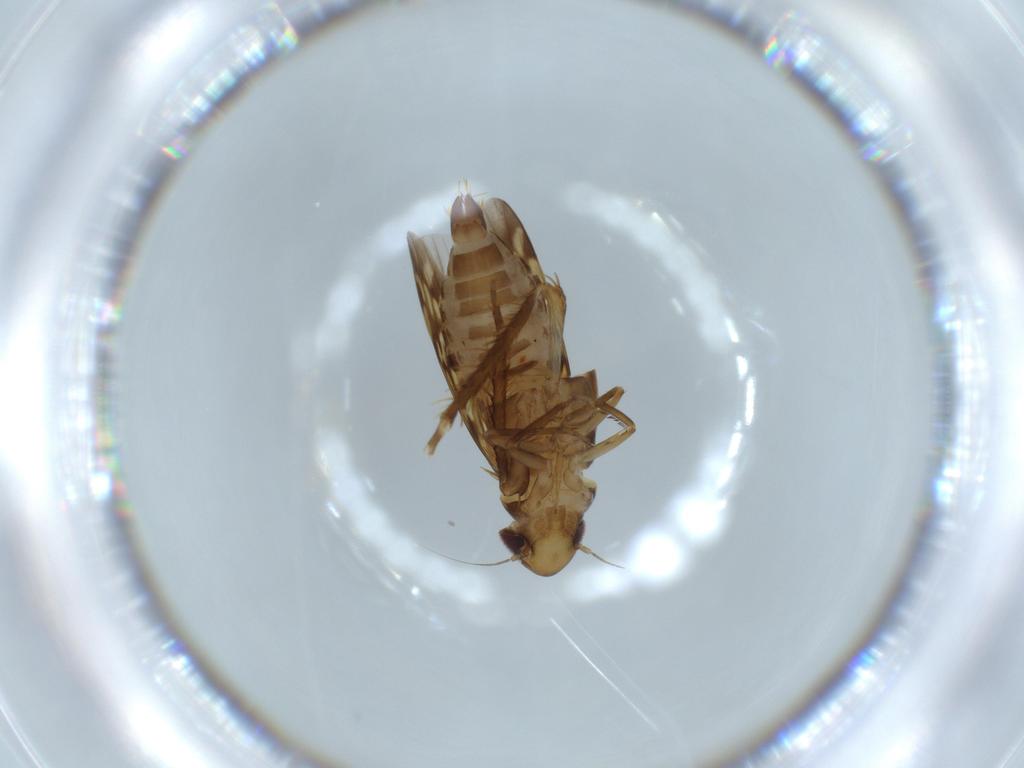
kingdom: Animalia
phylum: Arthropoda
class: Insecta
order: Hemiptera
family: Cicadellidae
